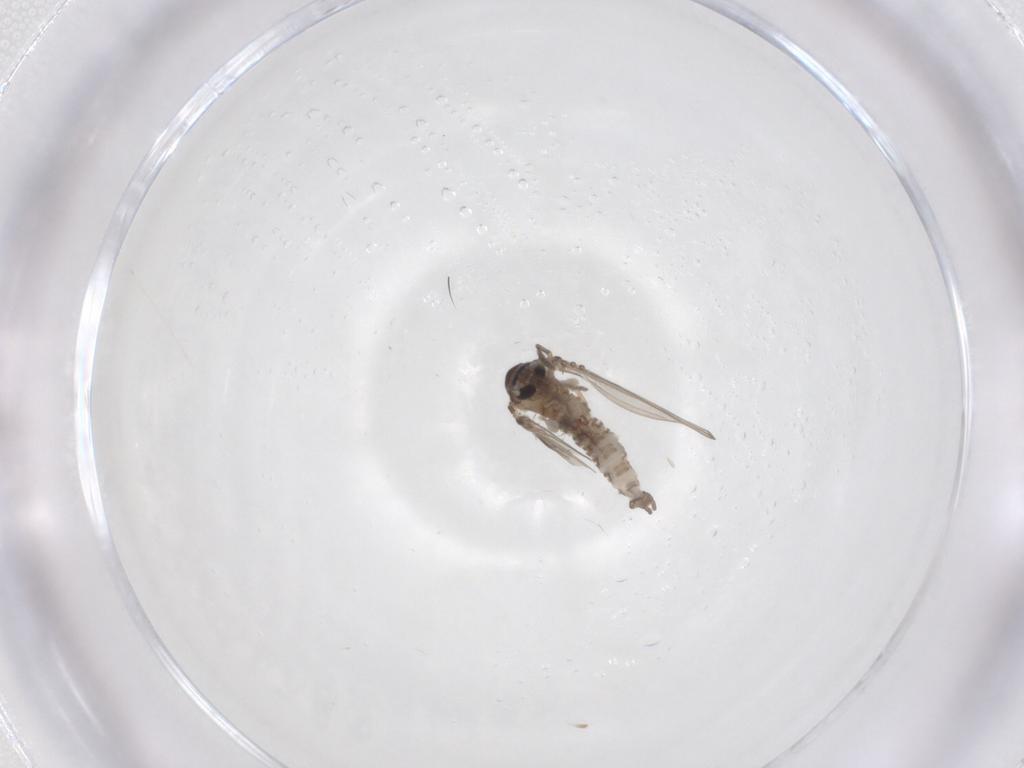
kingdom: Animalia
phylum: Arthropoda
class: Insecta
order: Diptera
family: Psychodidae
